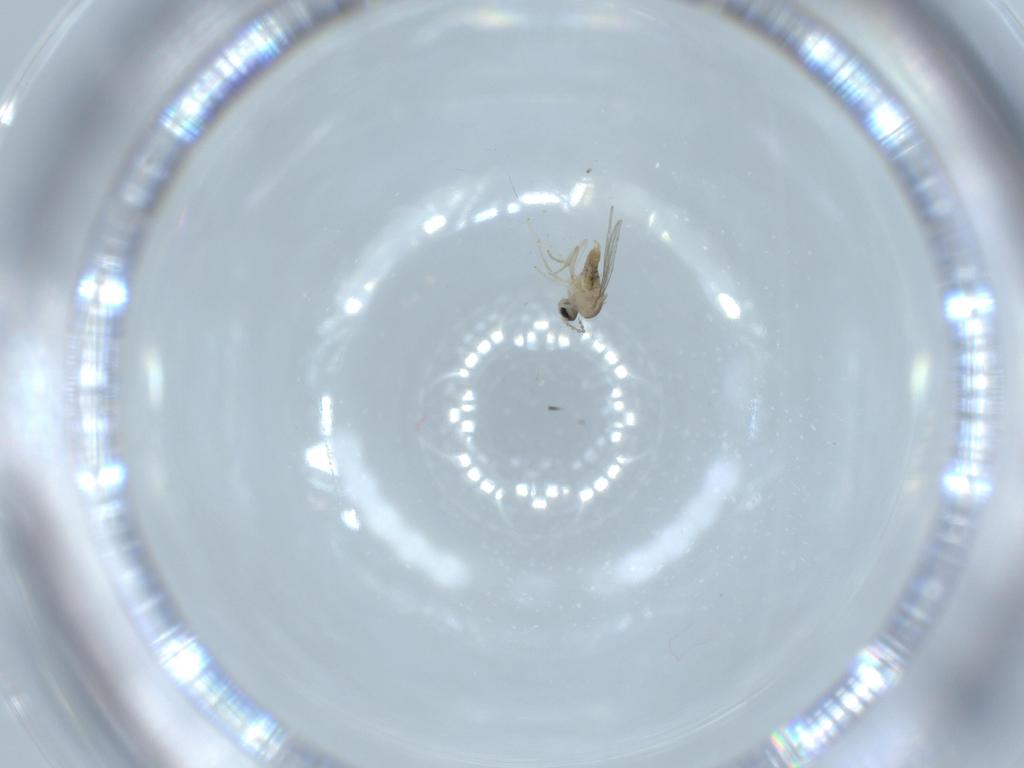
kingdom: Animalia
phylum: Arthropoda
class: Insecta
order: Diptera
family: Cecidomyiidae
